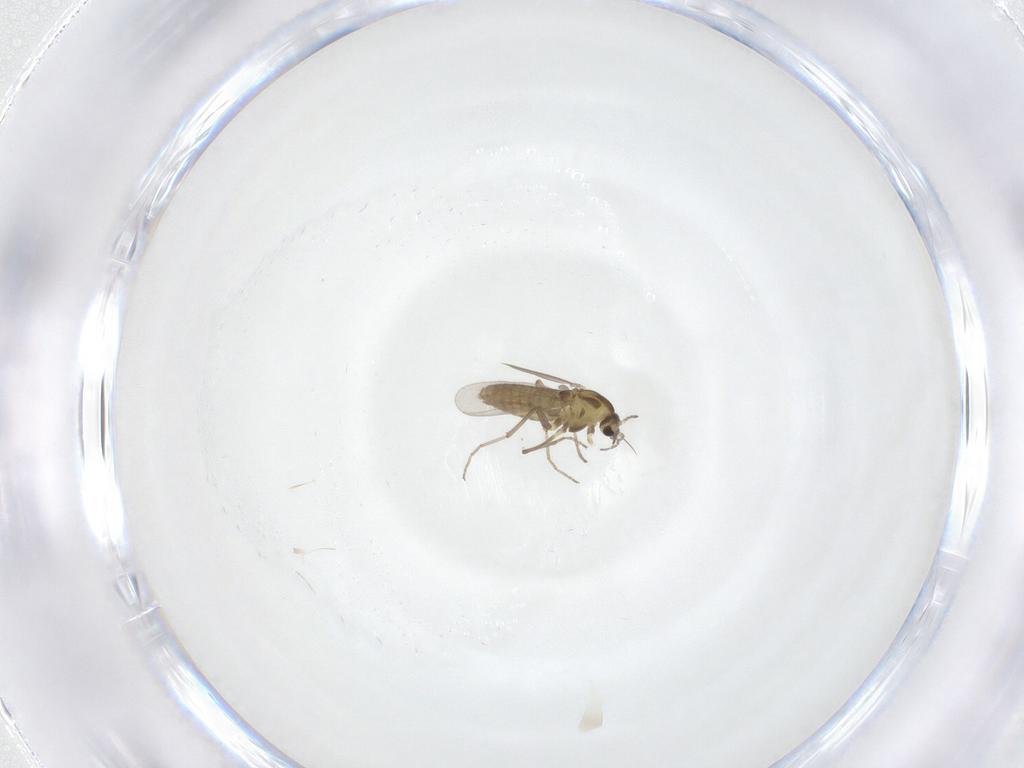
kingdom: Animalia
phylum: Arthropoda
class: Insecta
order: Diptera
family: Chironomidae
